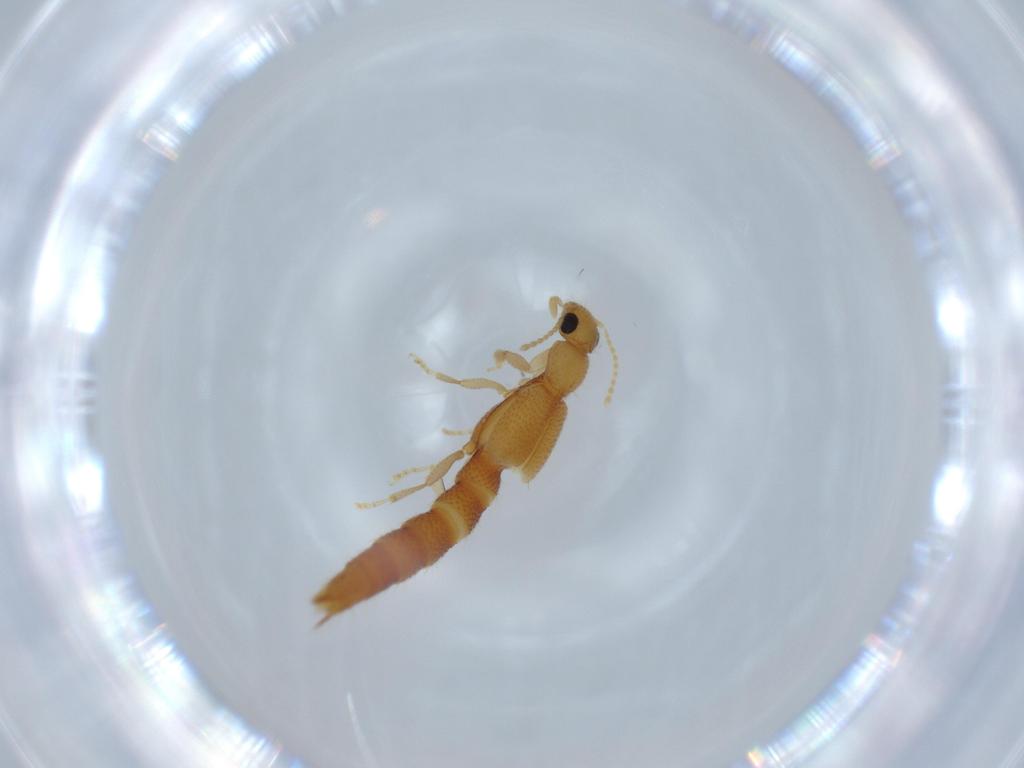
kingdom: Animalia
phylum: Arthropoda
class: Insecta
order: Coleoptera
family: Staphylinidae
